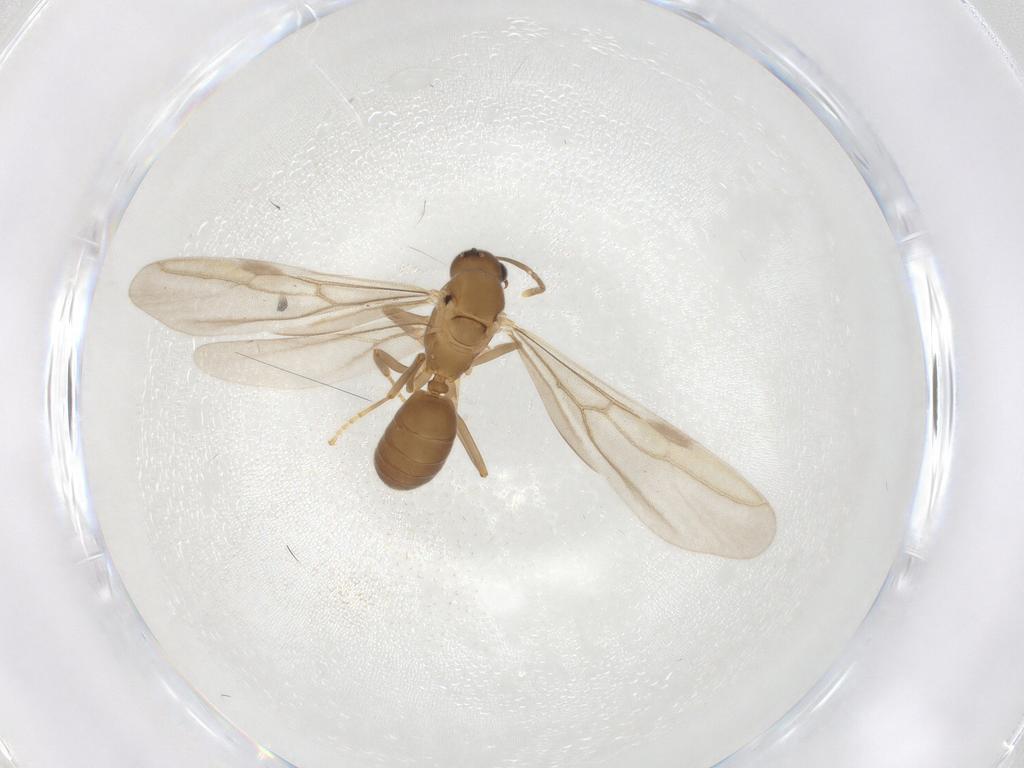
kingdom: Animalia
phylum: Arthropoda
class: Insecta
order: Hymenoptera
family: Formicidae
